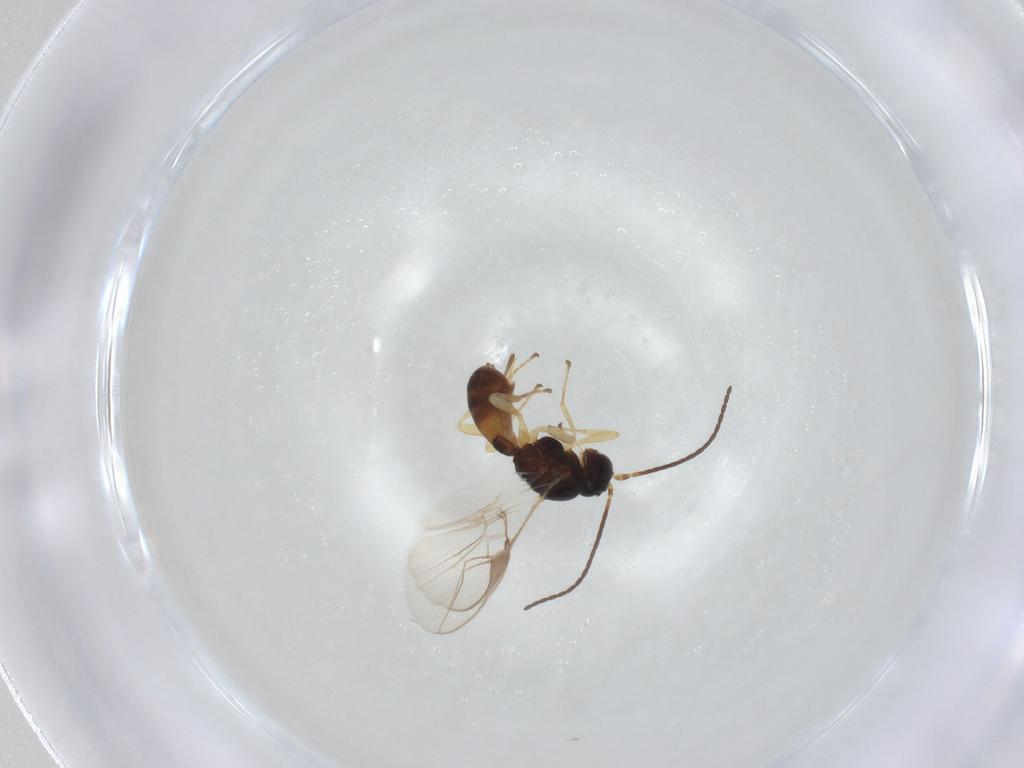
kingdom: Animalia
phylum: Arthropoda
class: Insecta
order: Hymenoptera
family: Braconidae
